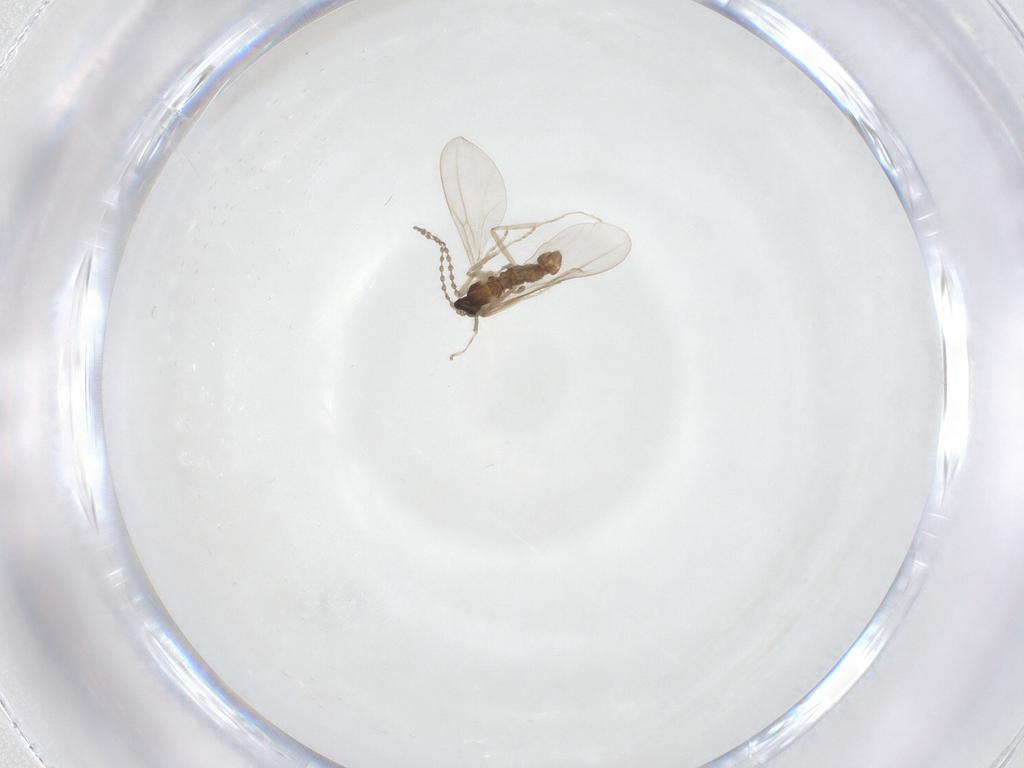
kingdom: Animalia
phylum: Arthropoda
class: Insecta
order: Diptera
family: Cecidomyiidae
